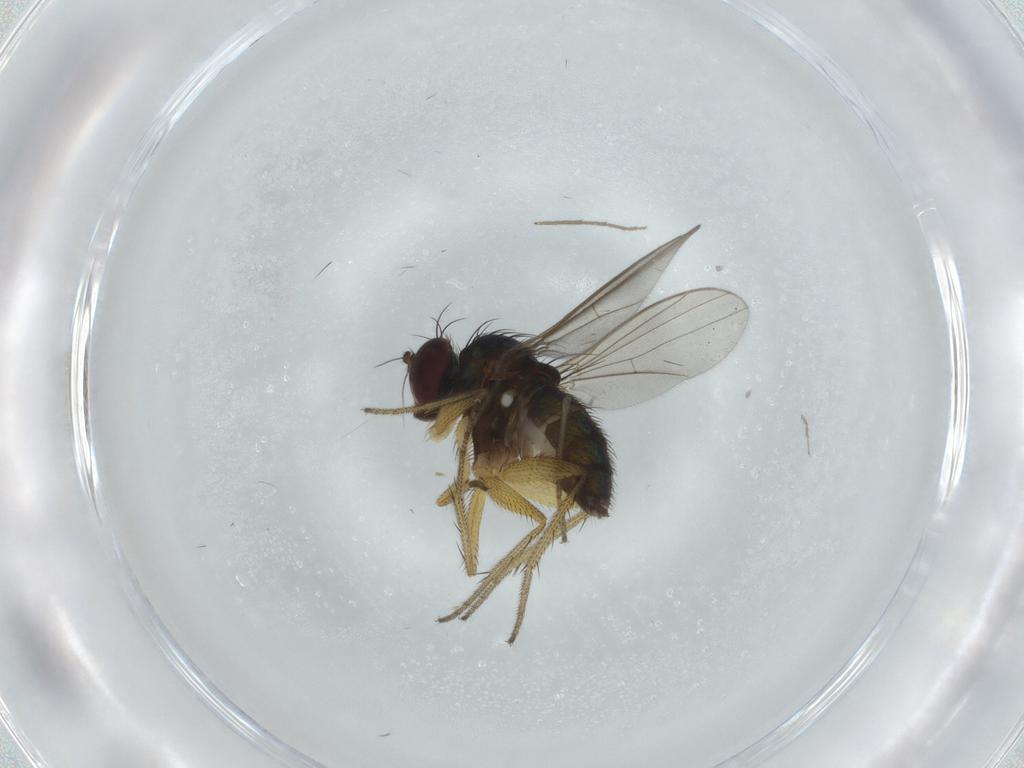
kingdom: Animalia
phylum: Arthropoda
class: Insecta
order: Diptera
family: Dolichopodidae
